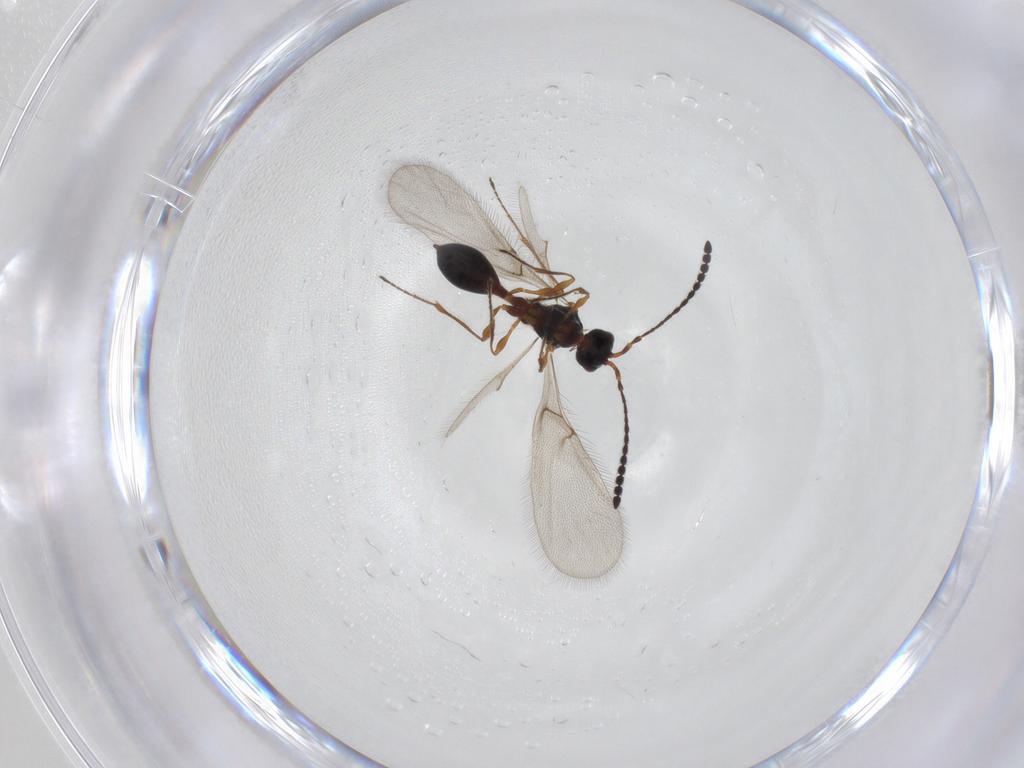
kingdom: Animalia
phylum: Arthropoda
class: Insecta
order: Hymenoptera
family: Diapriidae
